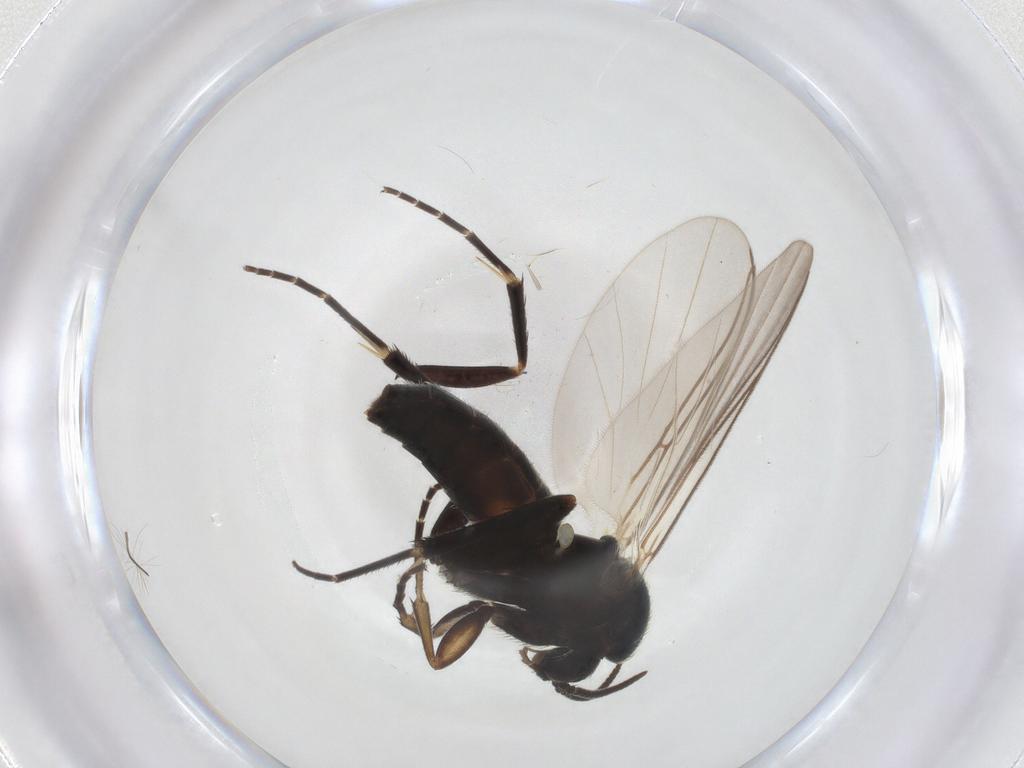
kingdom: Animalia
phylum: Arthropoda
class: Insecta
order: Diptera
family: Mycetophilidae
